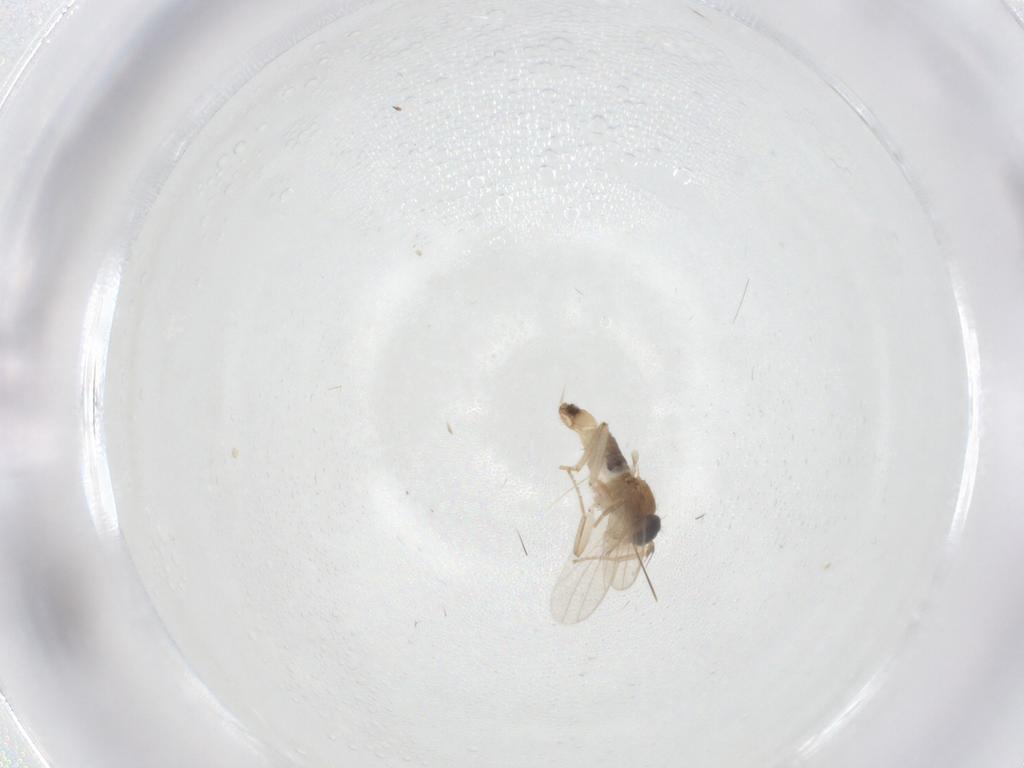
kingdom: Animalia
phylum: Arthropoda
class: Insecta
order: Diptera
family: Hybotidae
